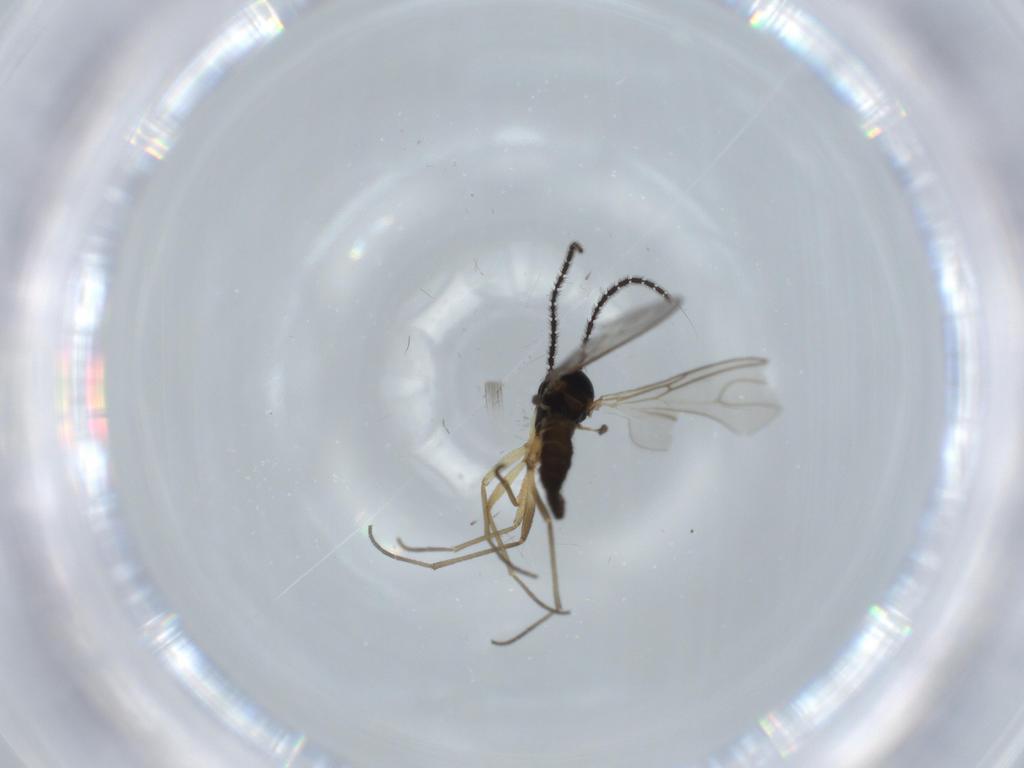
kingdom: Animalia
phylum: Arthropoda
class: Insecta
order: Diptera
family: Sciaridae
